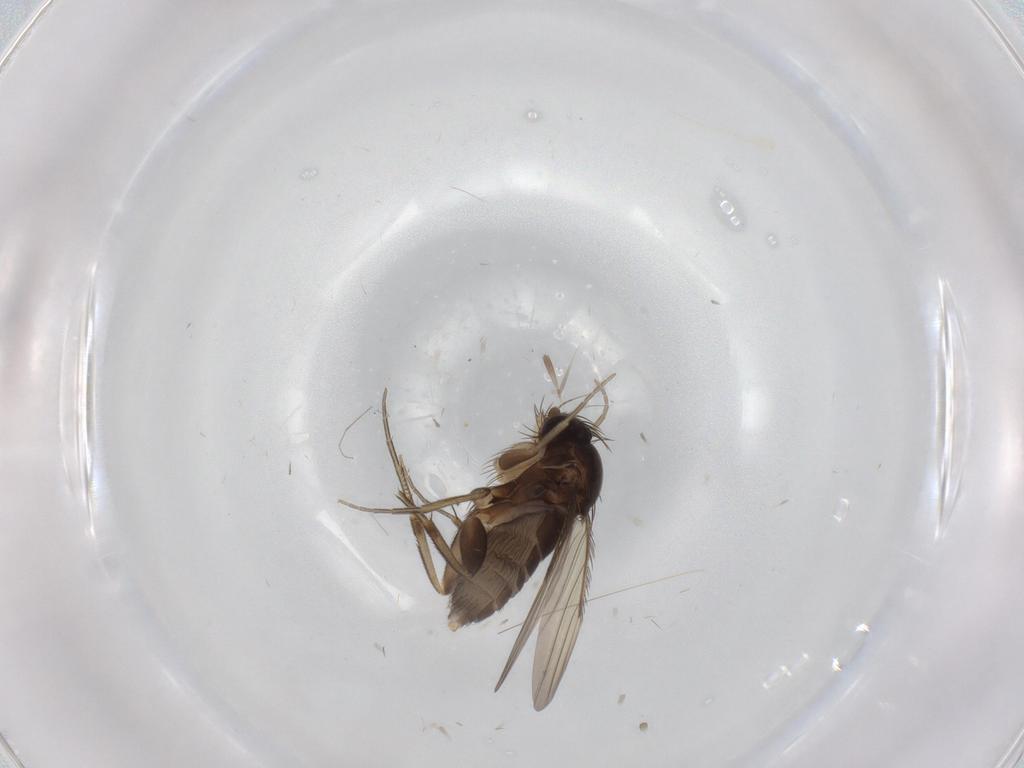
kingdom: Animalia
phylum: Arthropoda
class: Insecta
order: Diptera
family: Phoridae
